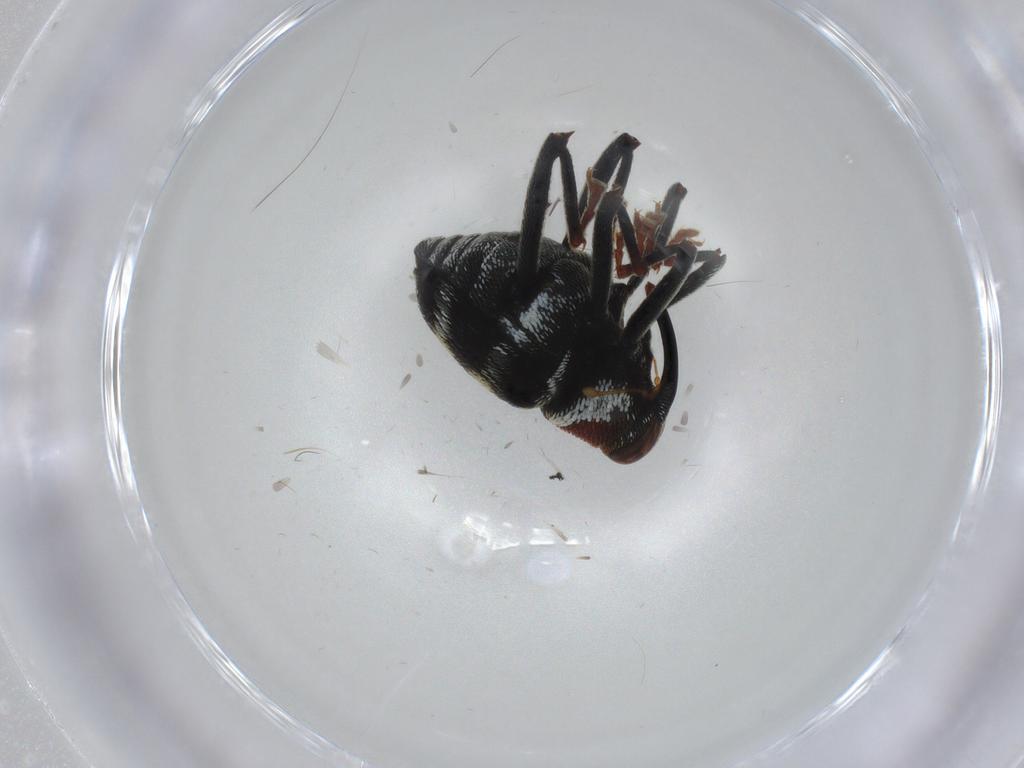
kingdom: Animalia
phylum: Arthropoda
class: Insecta
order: Coleoptera
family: Curculionidae
